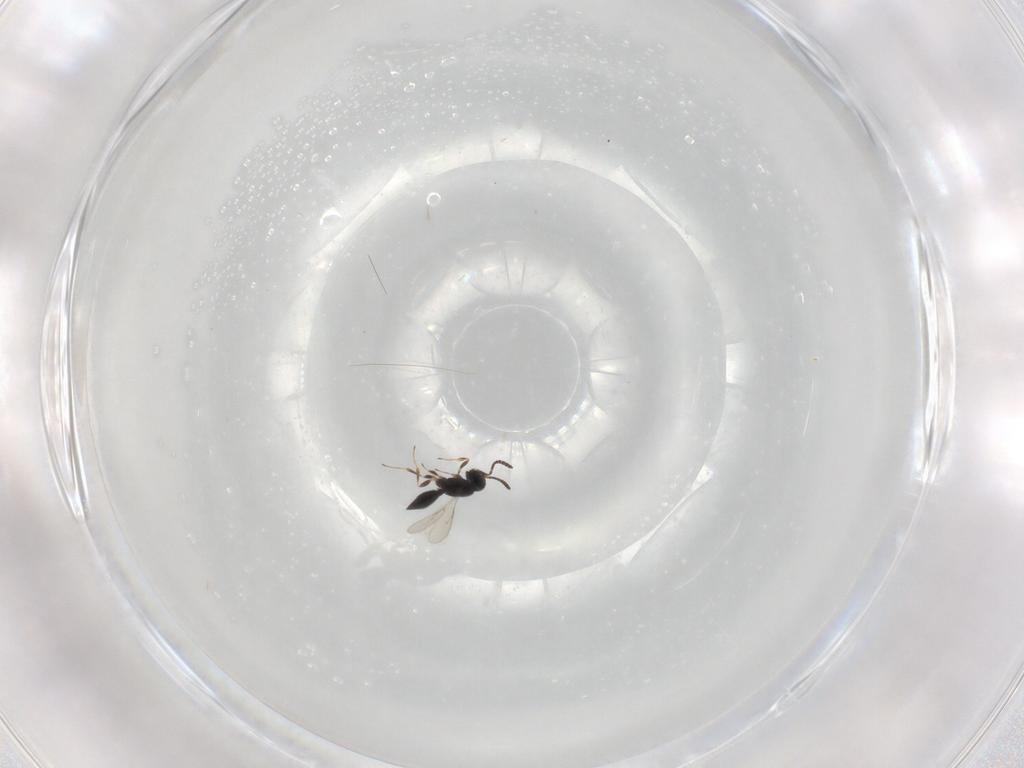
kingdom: Animalia
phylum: Arthropoda
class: Insecta
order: Hymenoptera
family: Scelionidae
